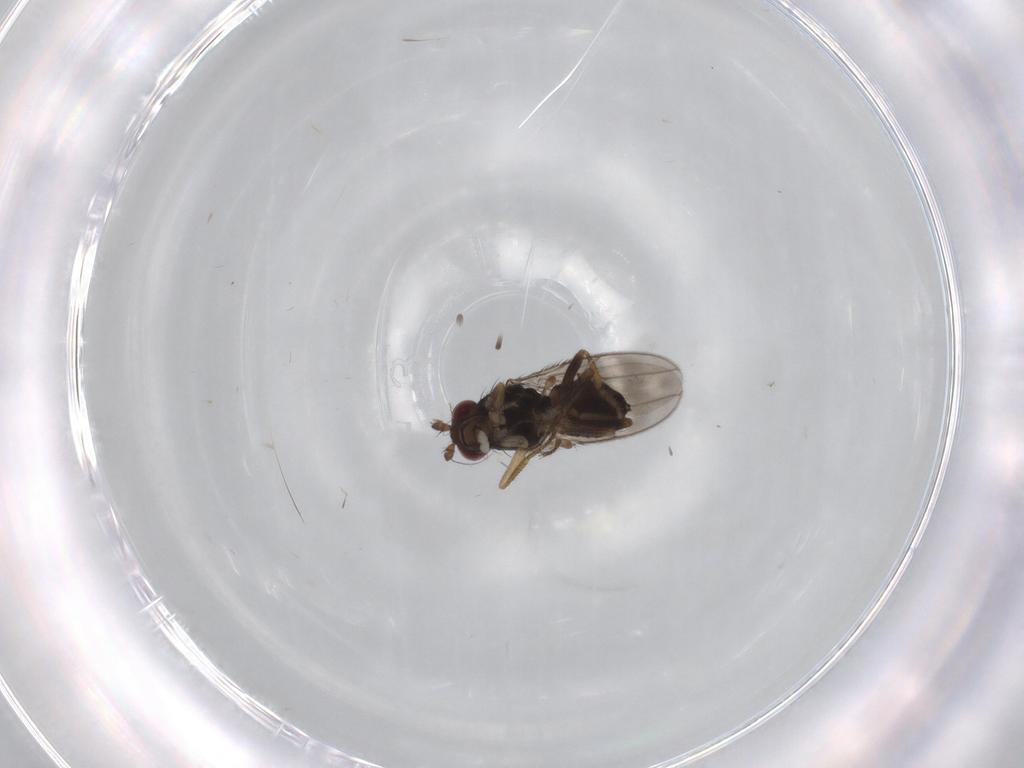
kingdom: Animalia
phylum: Arthropoda
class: Insecta
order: Diptera
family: Sphaeroceridae
